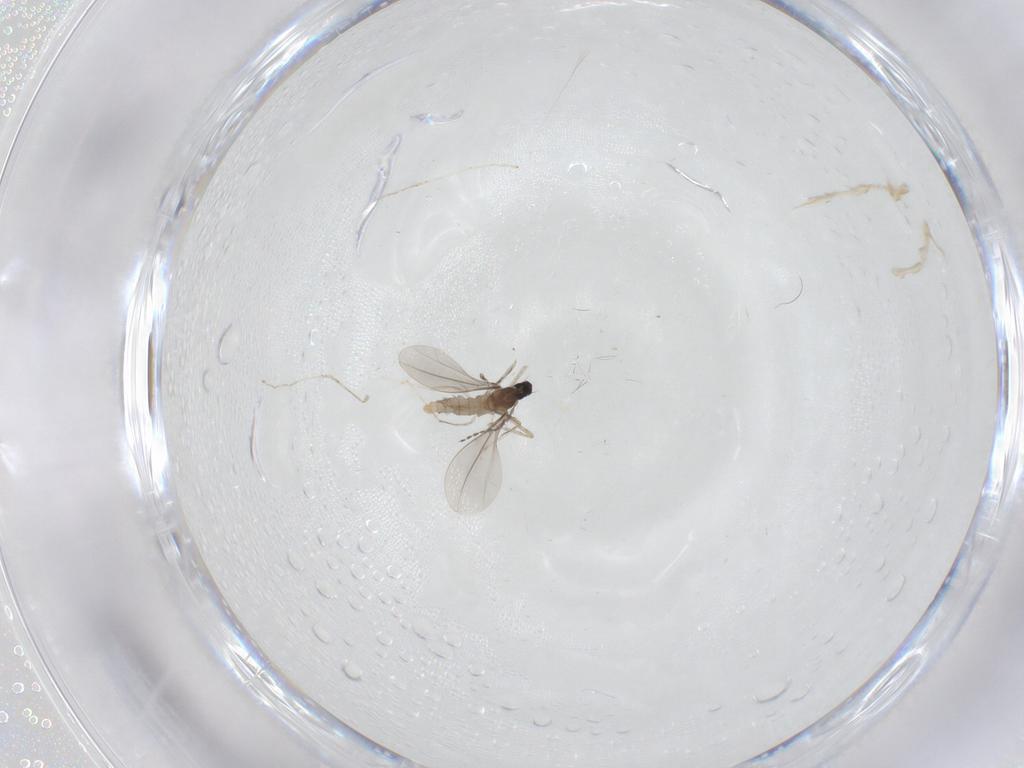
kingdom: Animalia
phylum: Arthropoda
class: Insecta
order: Diptera
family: Cecidomyiidae
